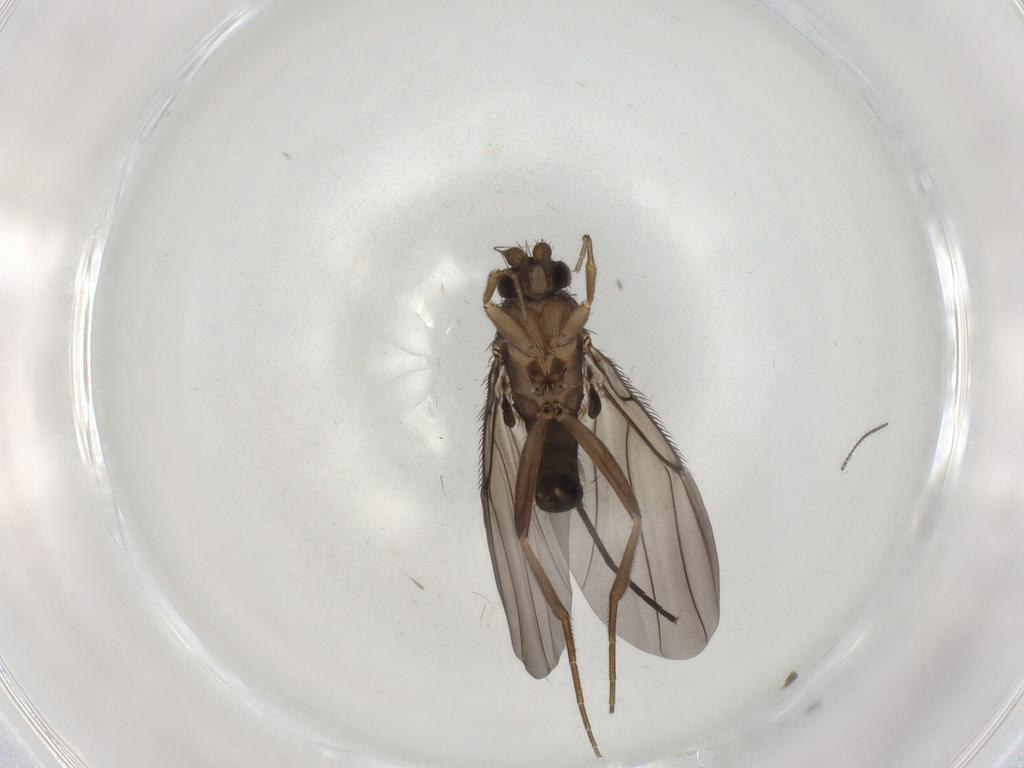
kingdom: Animalia
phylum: Arthropoda
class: Insecta
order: Diptera
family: Phoridae
